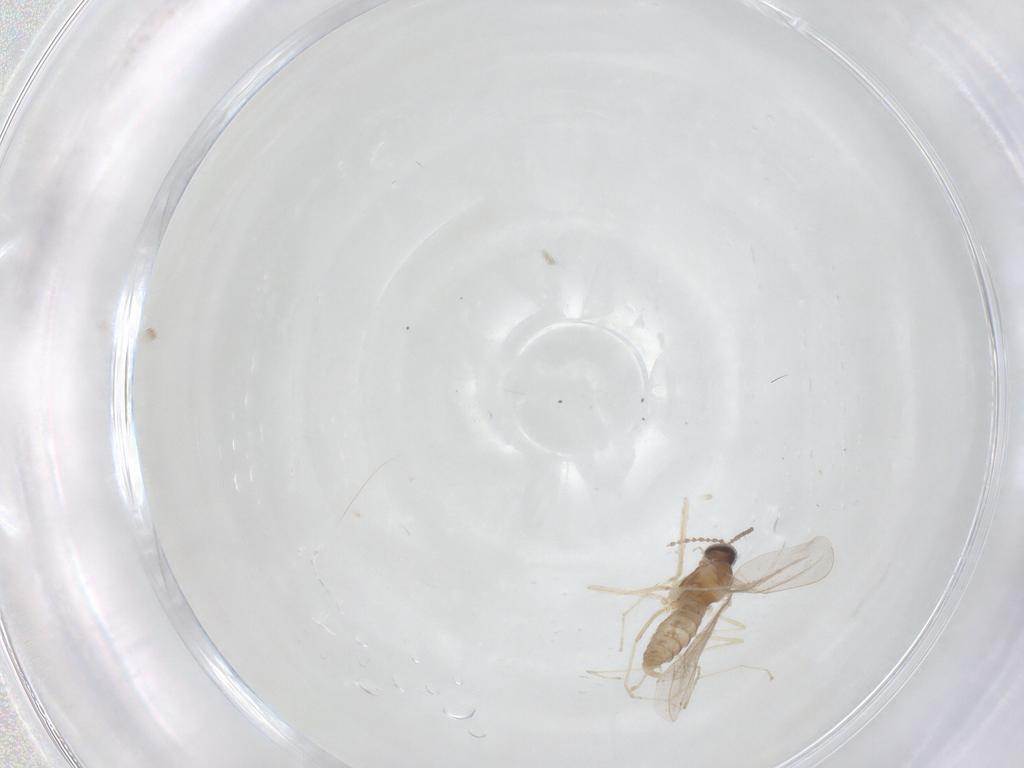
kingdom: Animalia
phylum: Arthropoda
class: Insecta
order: Diptera
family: Cecidomyiidae
